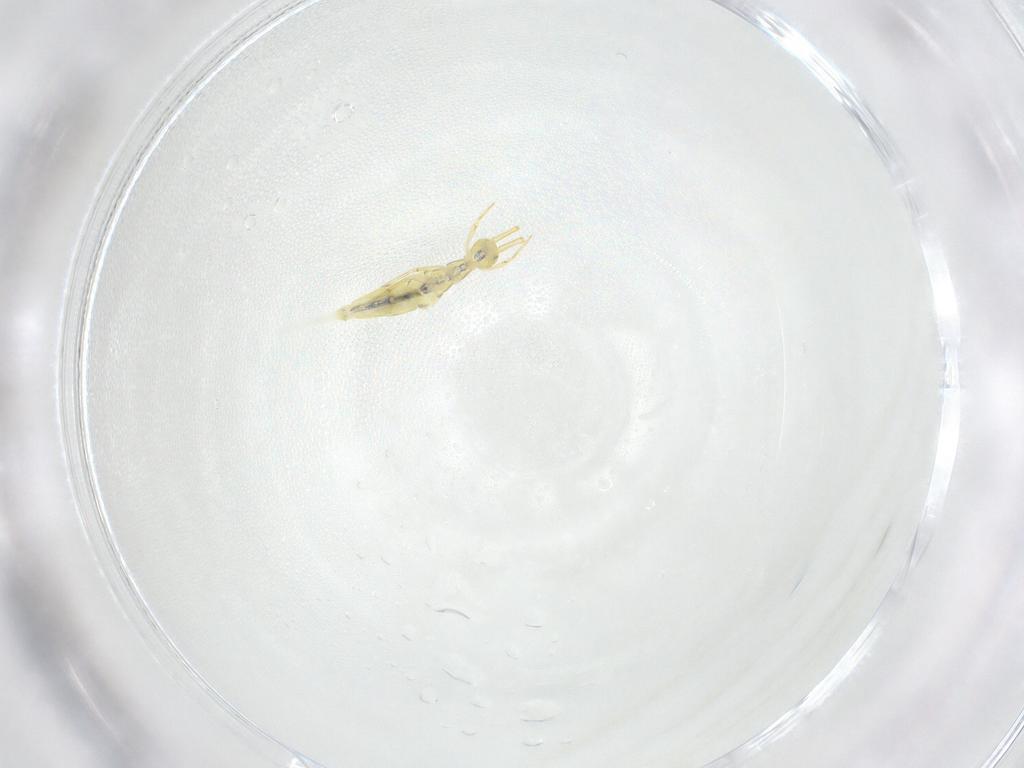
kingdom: Animalia
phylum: Arthropoda
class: Collembola
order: Entomobryomorpha
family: Entomobryidae
